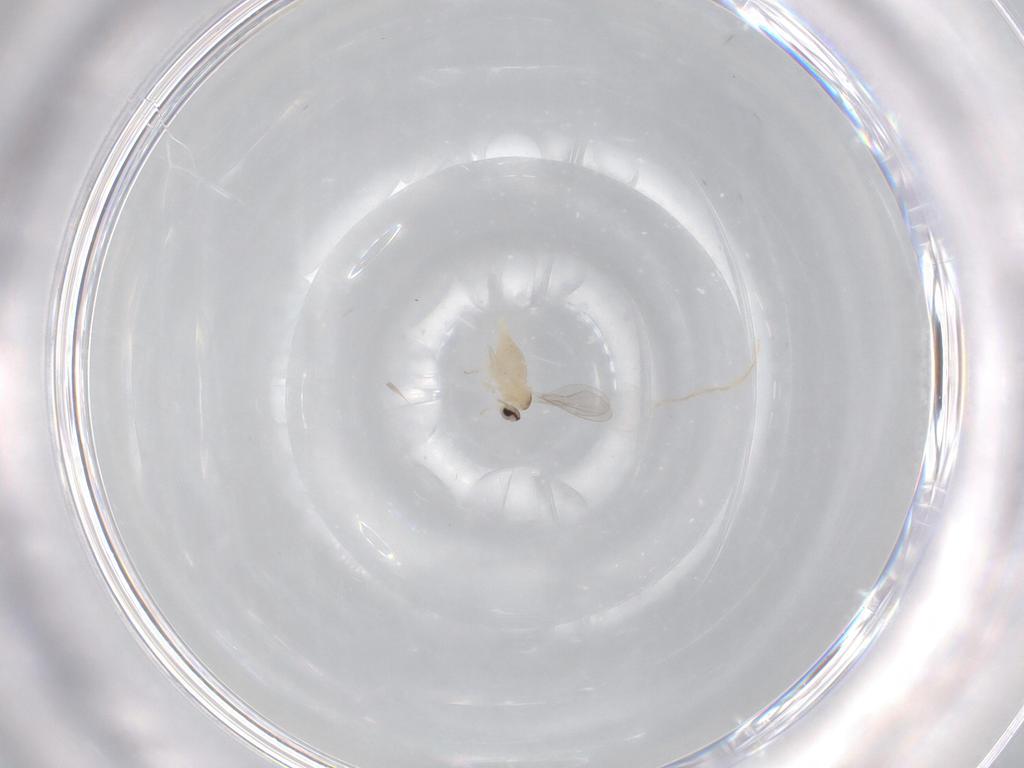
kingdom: Animalia
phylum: Arthropoda
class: Insecta
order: Diptera
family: Cecidomyiidae
